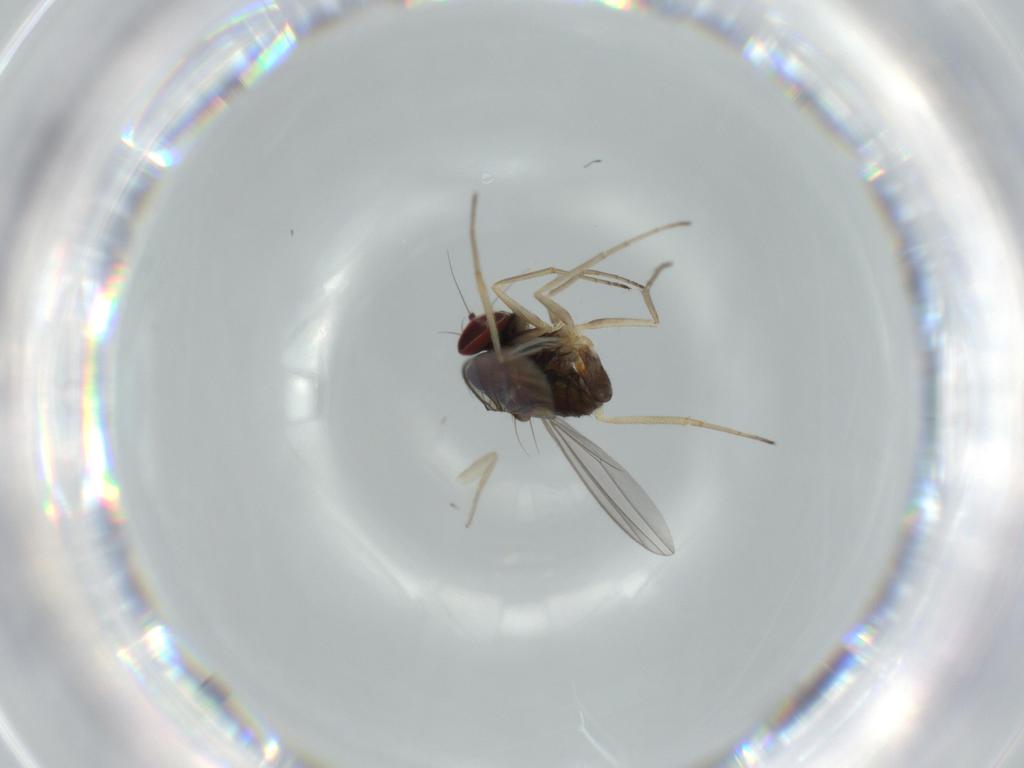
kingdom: Animalia
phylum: Arthropoda
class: Insecta
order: Diptera
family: Dolichopodidae
